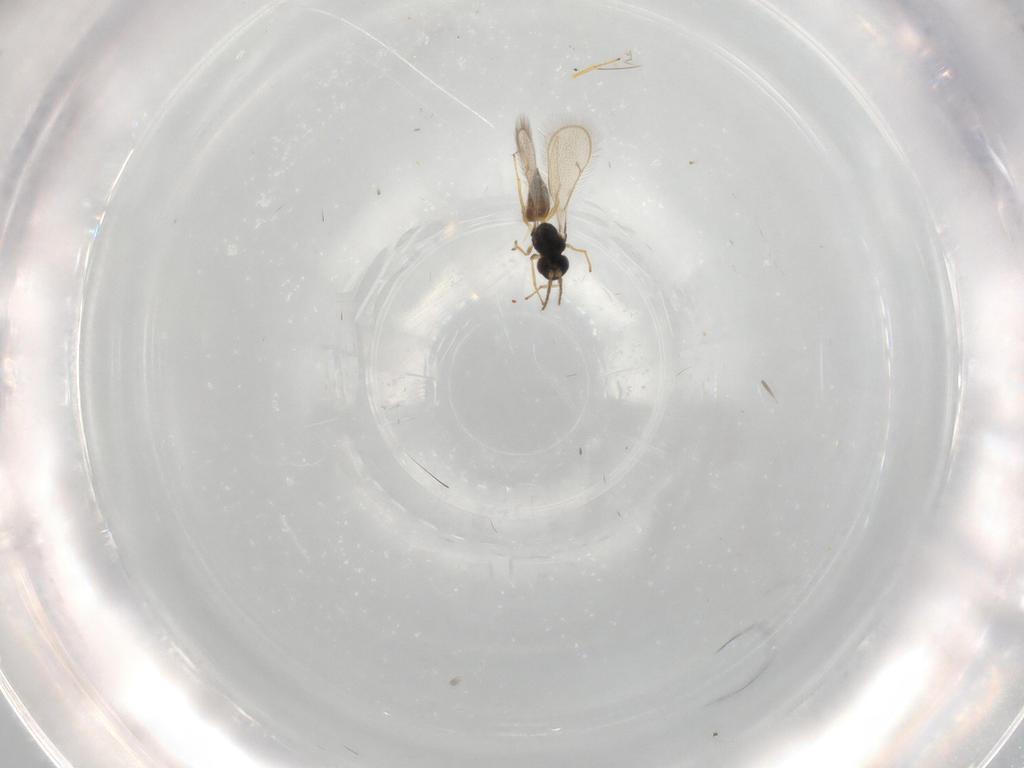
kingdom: Animalia
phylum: Arthropoda
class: Insecta
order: Hymenoptera
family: Eulophidae
